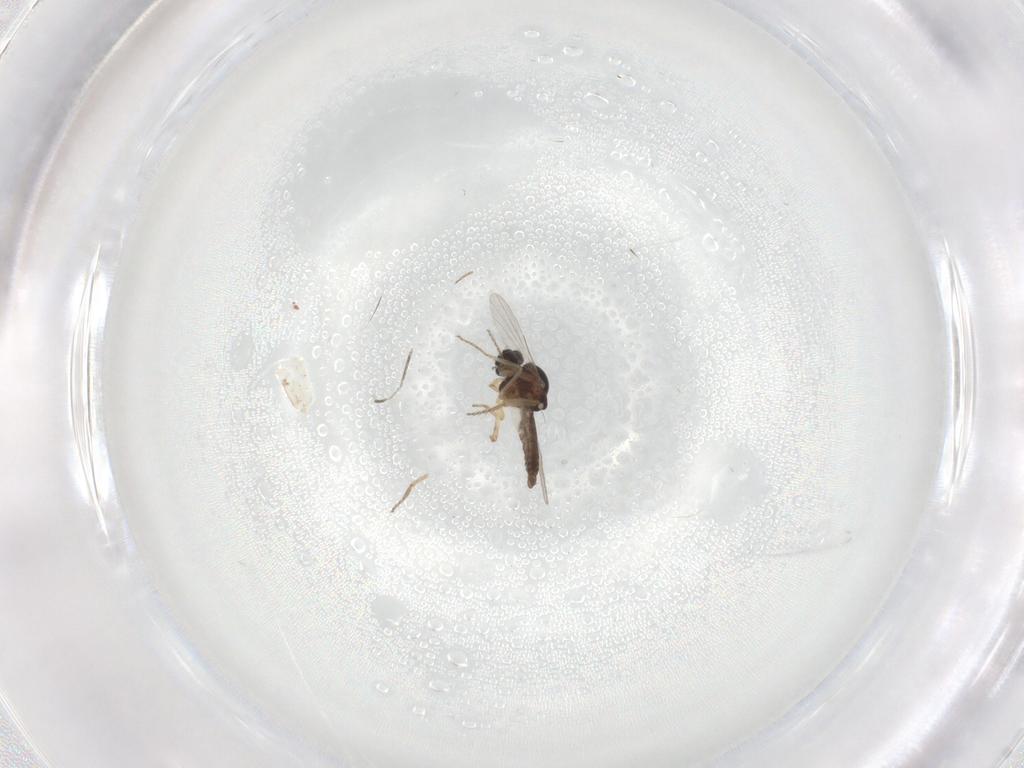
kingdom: Animalia
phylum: Arthropoda
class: Insecta
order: Diptera
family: Ceratopogonidae
